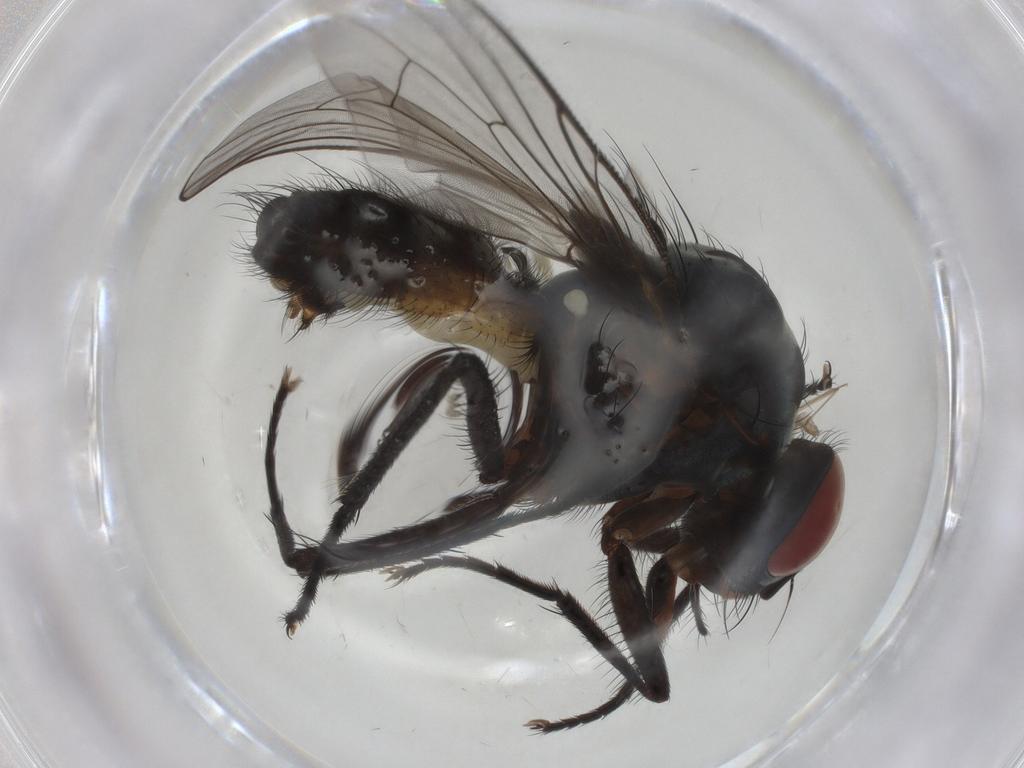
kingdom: Animalia
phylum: Arthropoda
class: Insecta
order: Diptera
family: Anthomyiidae
